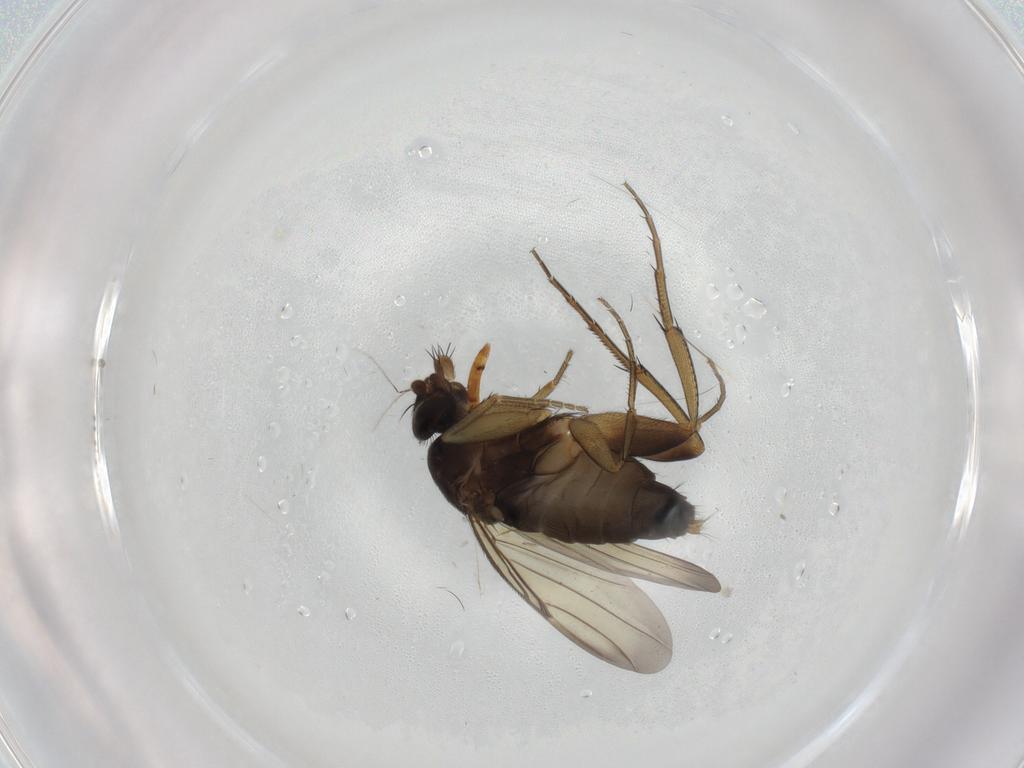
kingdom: Animalia
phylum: Arthropoda
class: Insecta
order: Diptera
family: Phoridae
